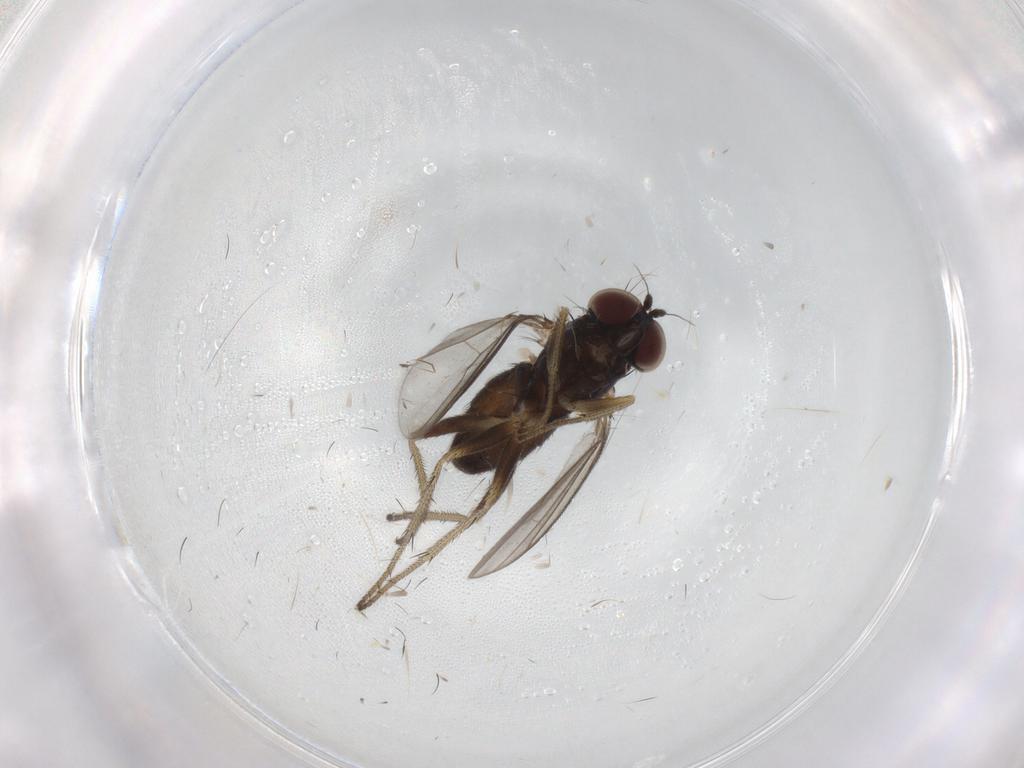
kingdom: Animalia
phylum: Arthropoda
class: Insecta
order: Diptera
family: Dolichopodidae
